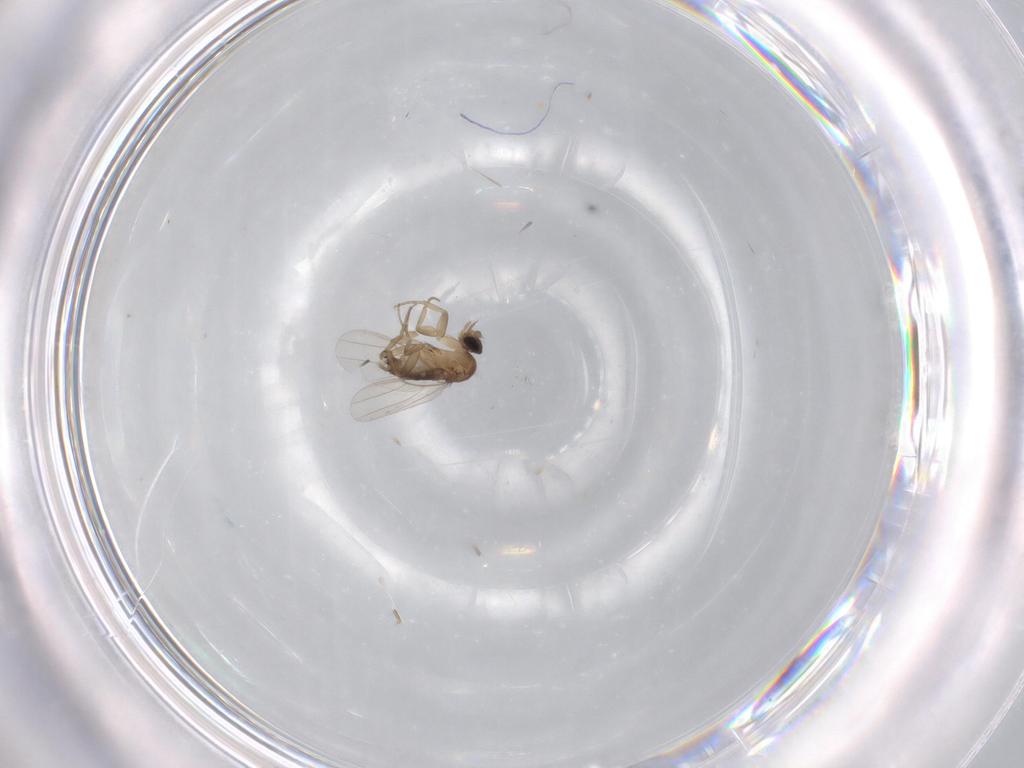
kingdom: Animalia
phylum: Arthropoda
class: Insecta
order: Diptera
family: Phoridae
